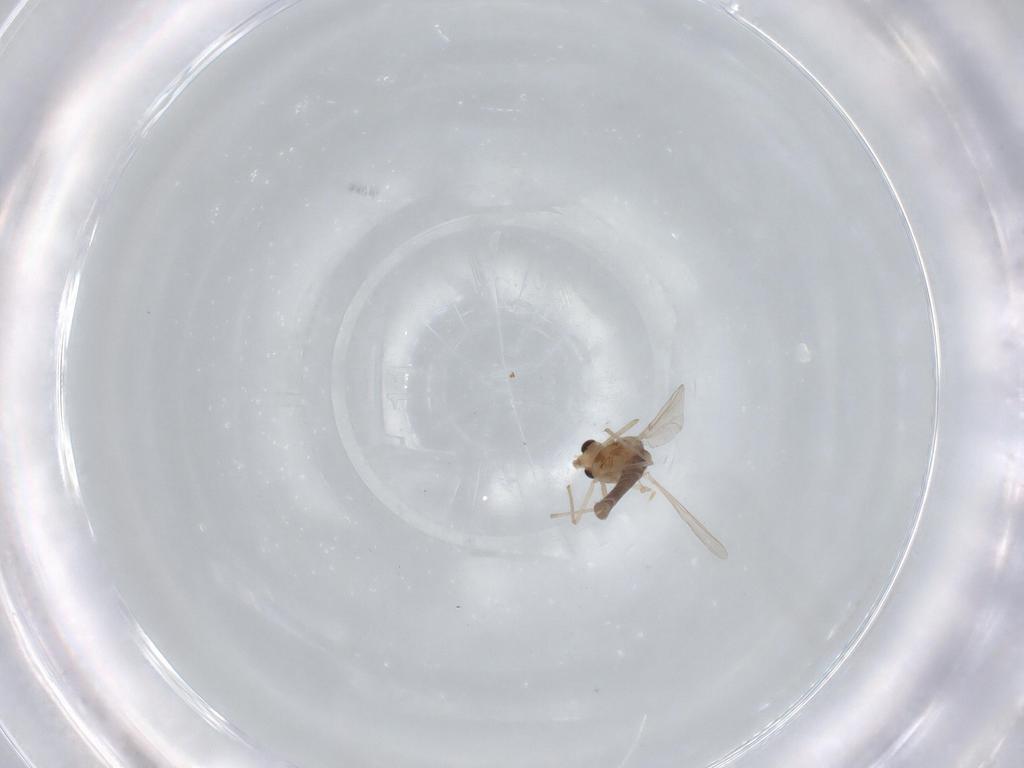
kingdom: Animalia
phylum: Arthropoda
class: Insecta
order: Diptera
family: Chironomidae
